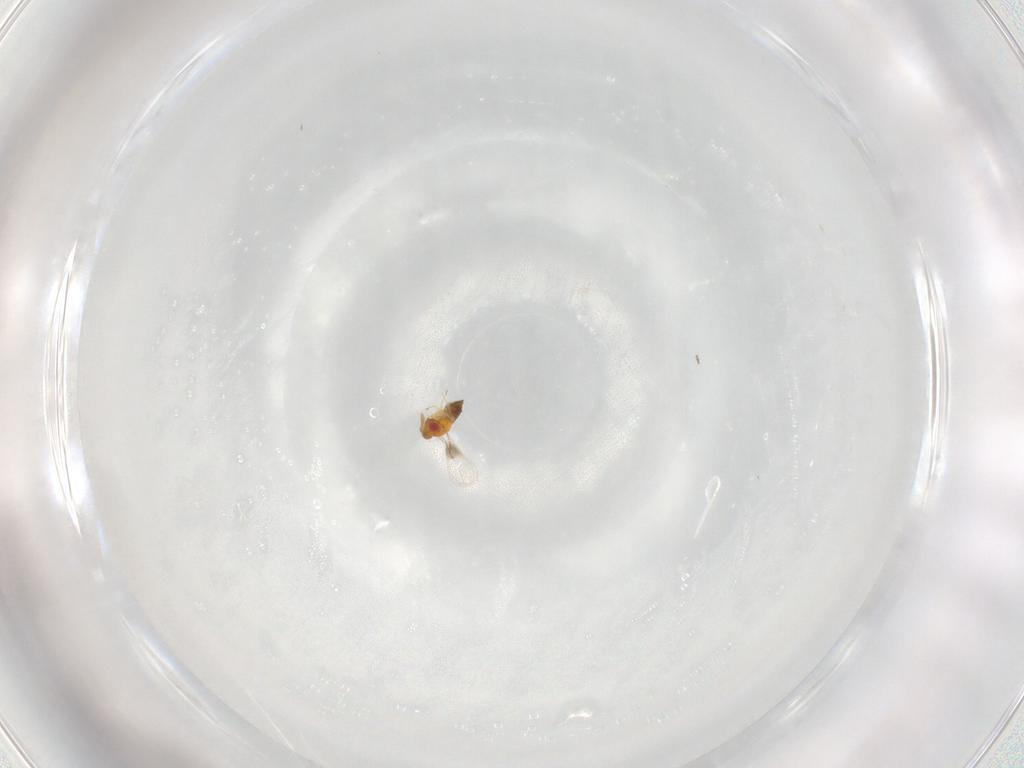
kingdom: Animalia
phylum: Arthropoda
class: Insecta
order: Hymenoptera
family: Trichogrammatidae
